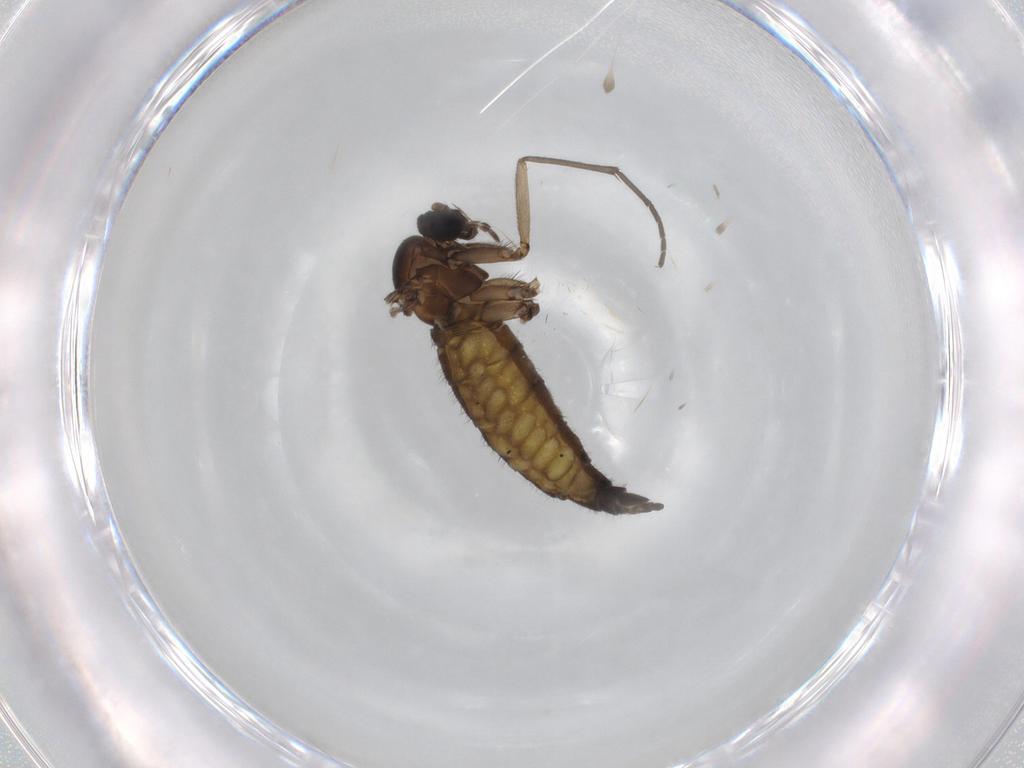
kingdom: Animalia
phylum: Arthropoda
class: Insecta
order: Diptera
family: Sciaridae
